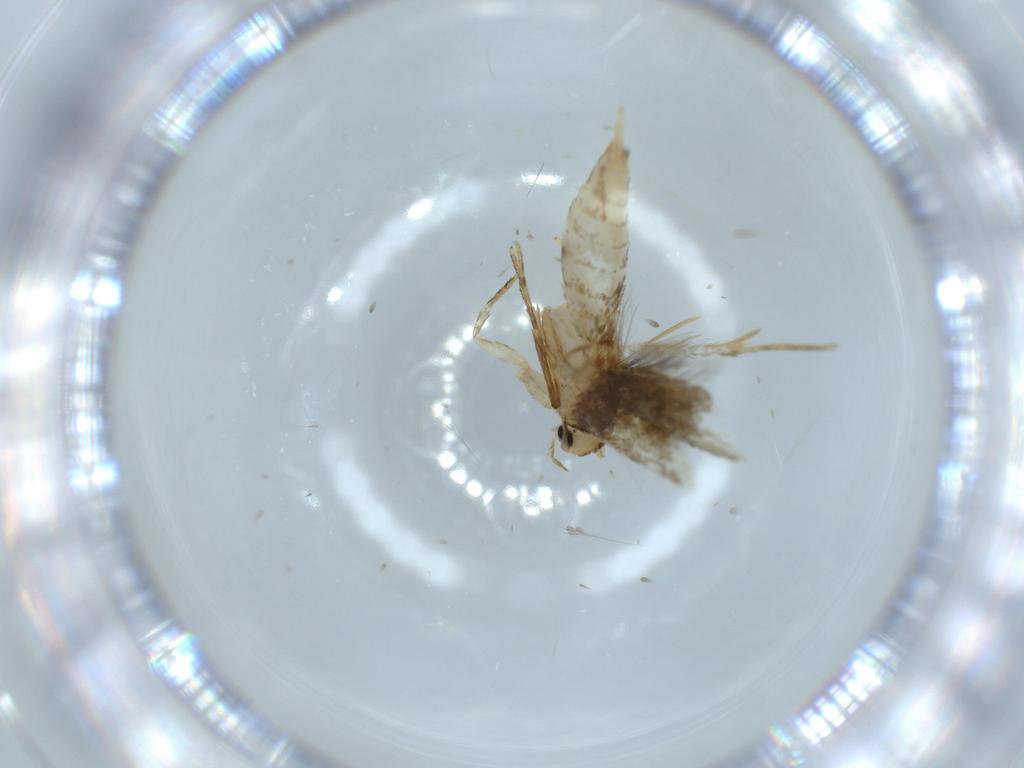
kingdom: Animalia
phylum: Arthropoda
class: Insecta
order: Lepidoptera
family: Tineidae
